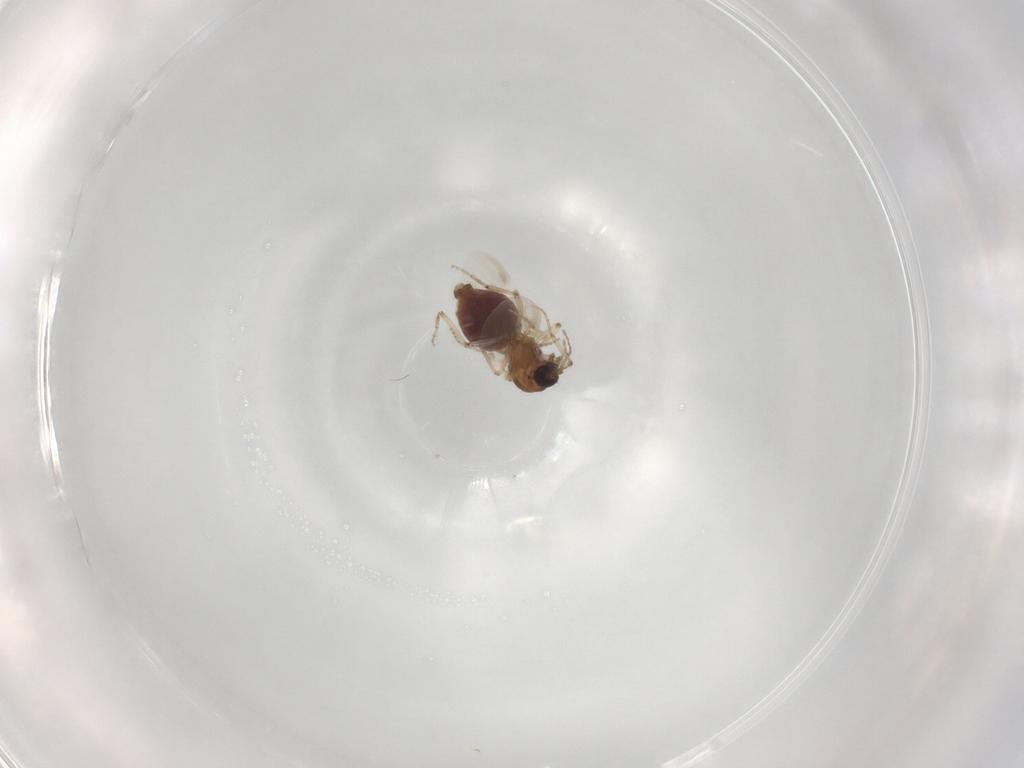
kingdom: Animalia
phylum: Arthropoda
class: Insecta
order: Diptera
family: Ceratopogonidae
